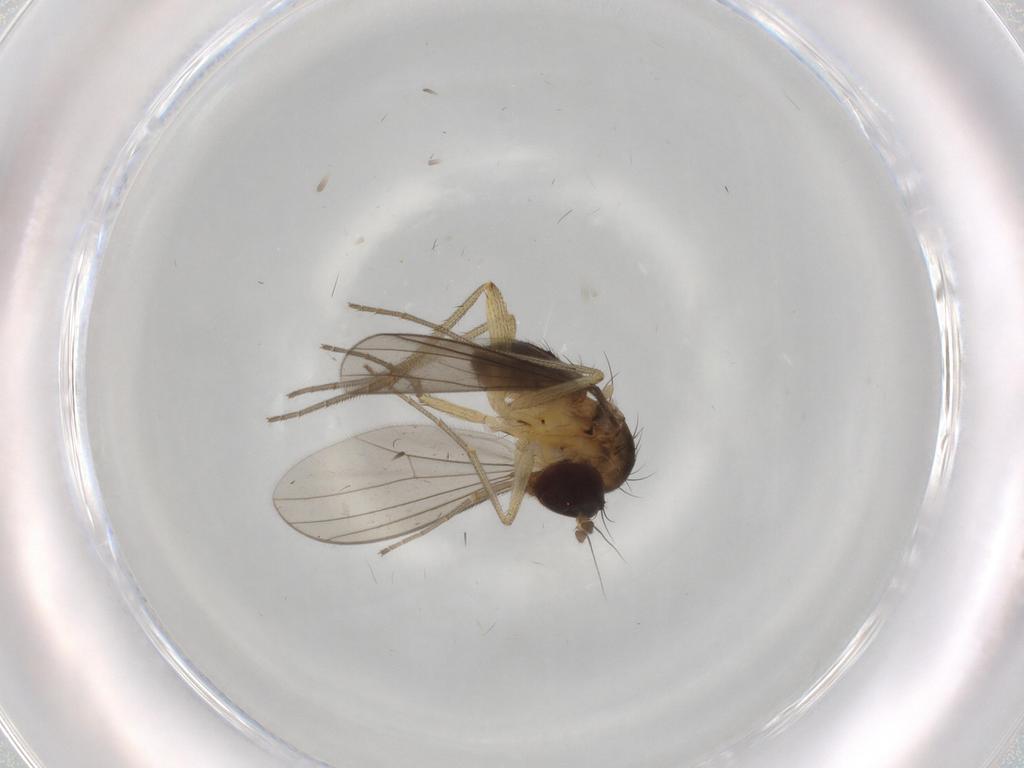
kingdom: Animalia
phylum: Arthropoda
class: Insecta
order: Diptera
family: Dolichopodidae
